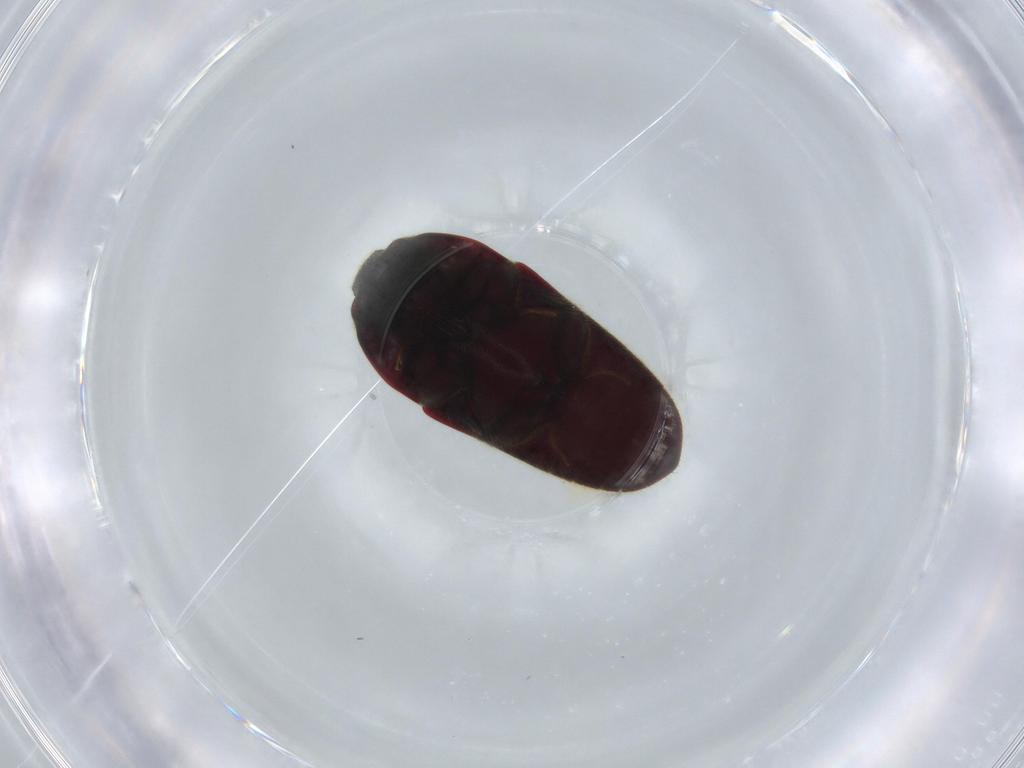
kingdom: Animalia
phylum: Arthropoda
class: Insecta
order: Coleoptera
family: Throscidae
